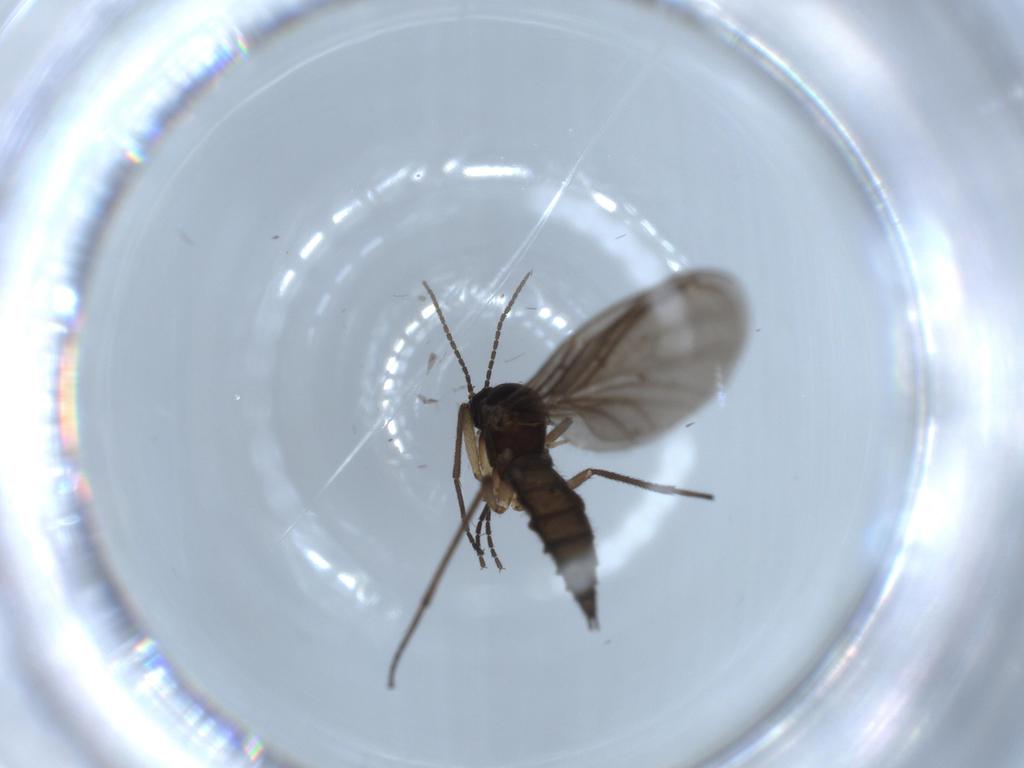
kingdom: Animalia
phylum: Arthropoda
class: Insecta
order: Diptera
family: Sciaridae
